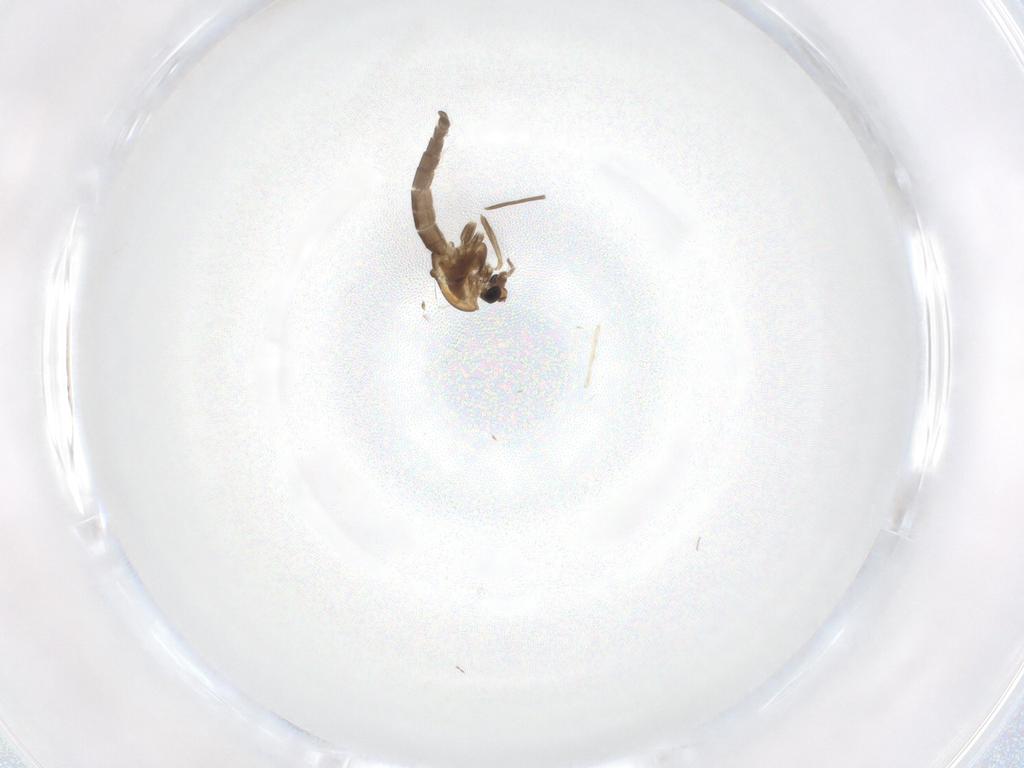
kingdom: Animalia
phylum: Arthropoda
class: Insecta
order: Diptera
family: Chironomidae
